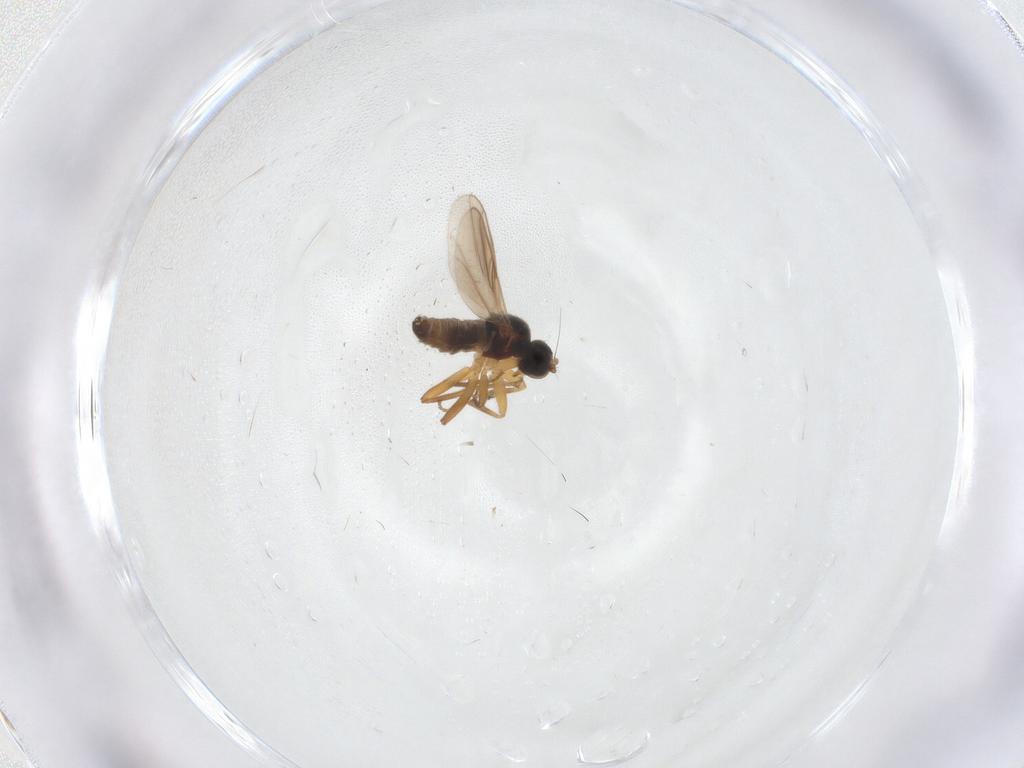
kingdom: Animalia
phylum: Arthropoda
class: Insecta
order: Diptera
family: Hybotidae
